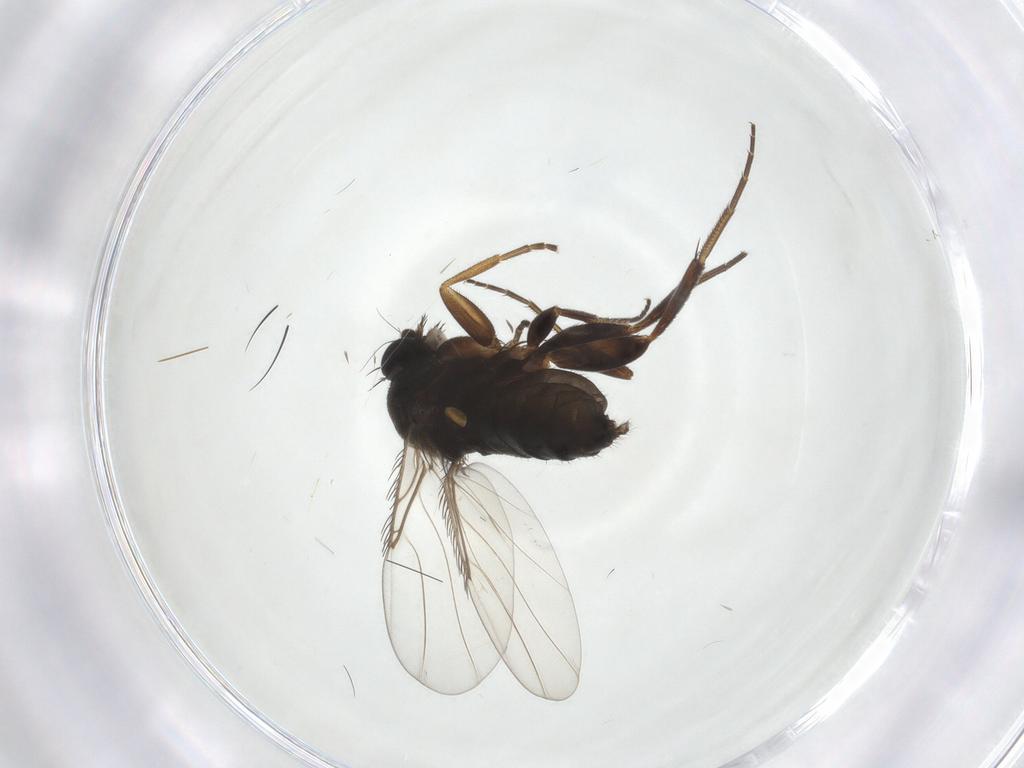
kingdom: Animalia
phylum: Arthropoda
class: Insecta
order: Diptera
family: Phoridae
